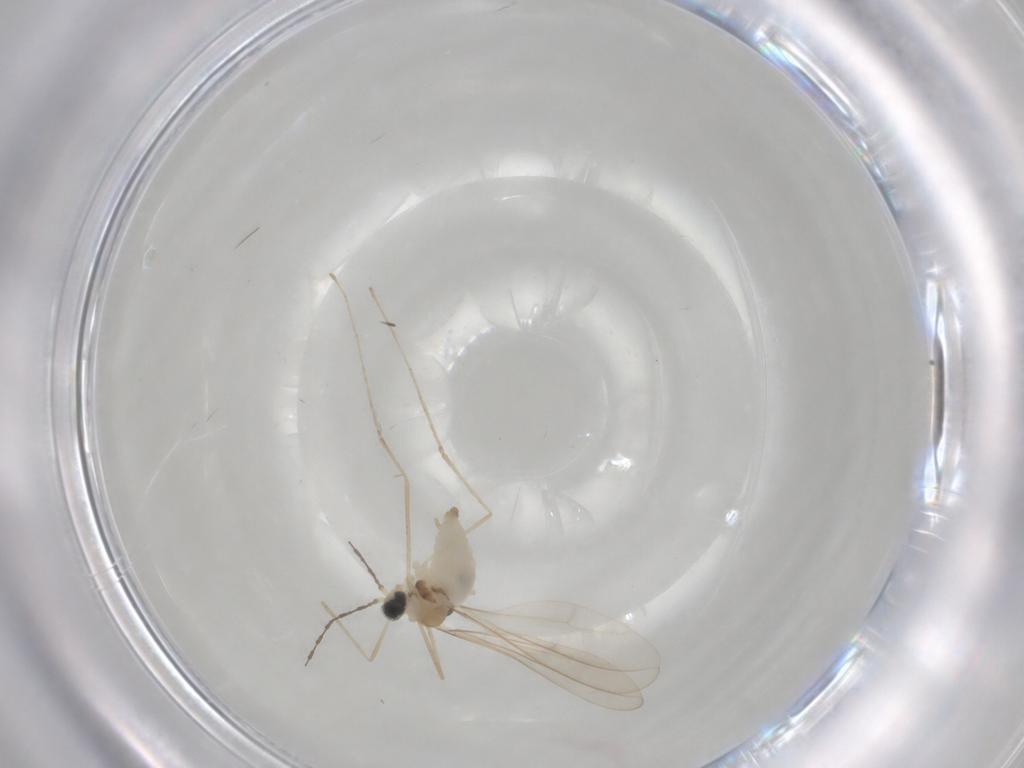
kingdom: Animalia
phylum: Arthropoda
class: Insecta
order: Diptera
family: Cecidomyiidae
